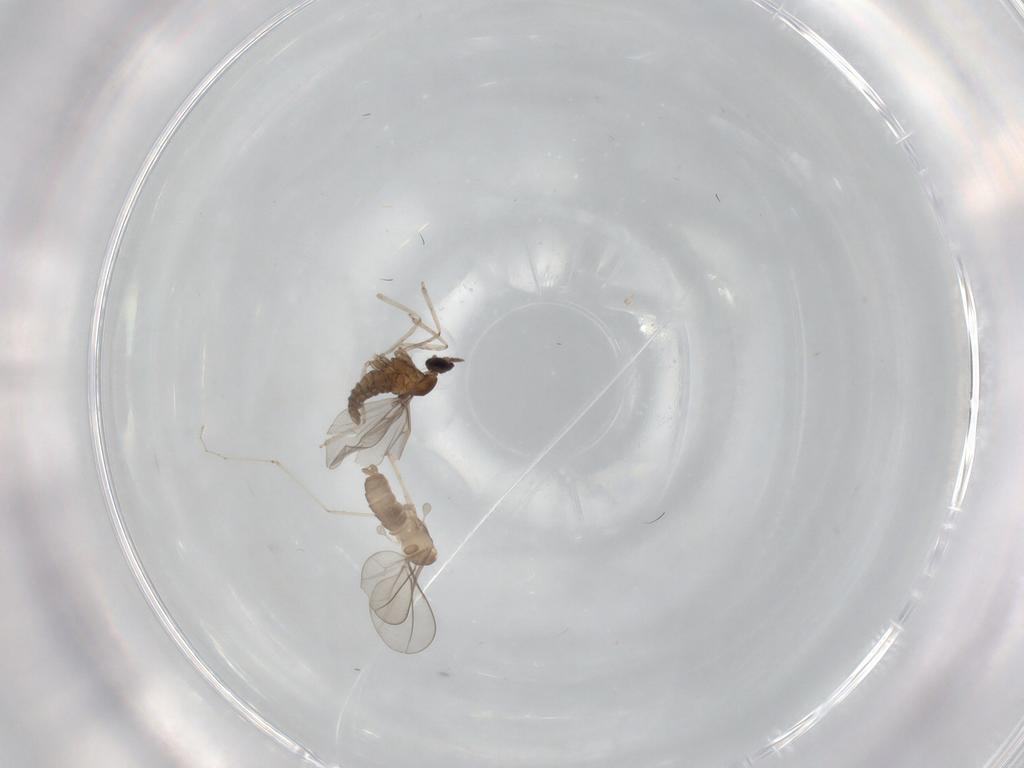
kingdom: Animalia
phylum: Arthropoda
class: Insecta
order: Diptera
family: Cecidomyiidae
